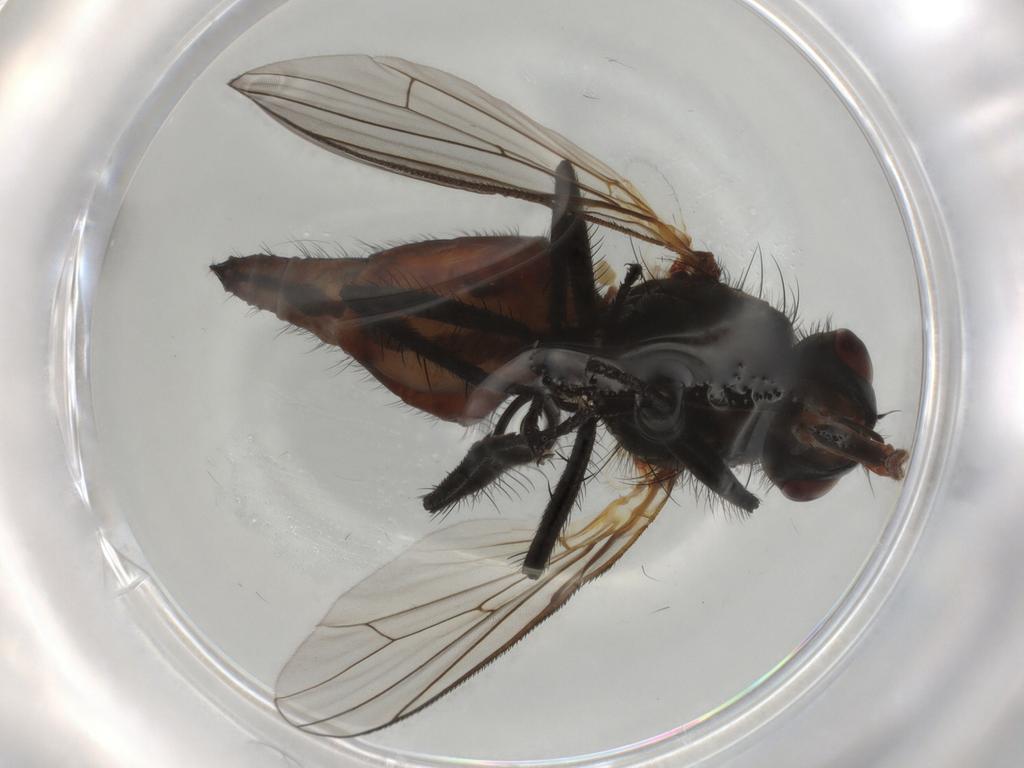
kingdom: Animalia
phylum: Arthropoda
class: Insecta
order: Diptera
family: Anthomyiidae
